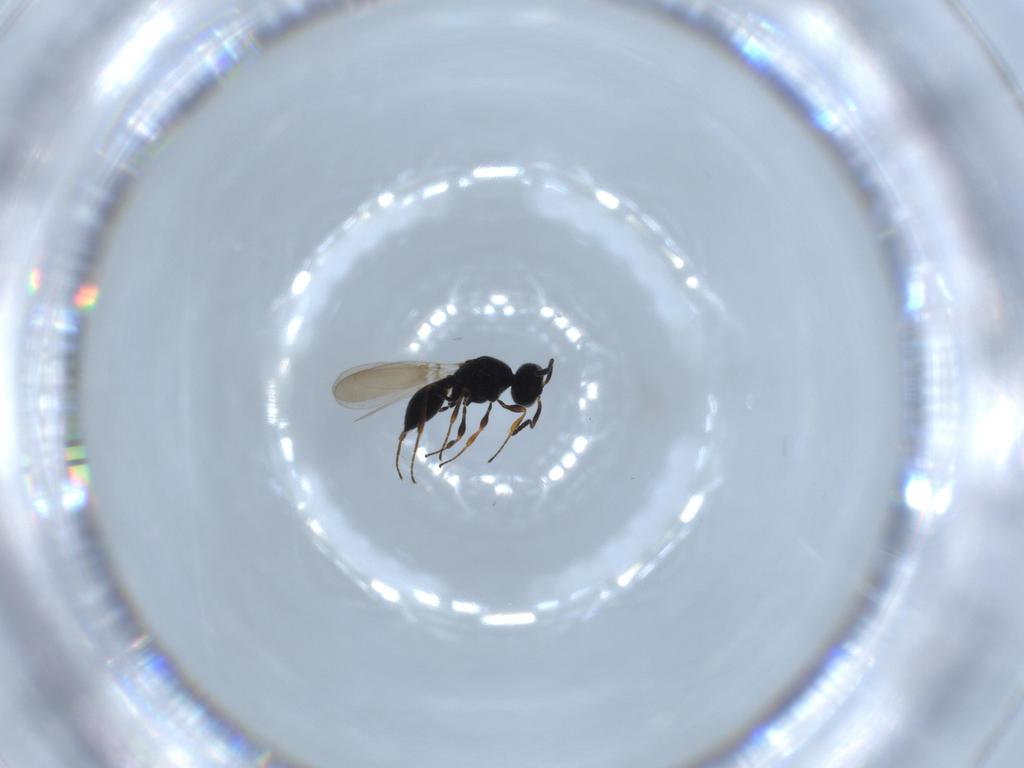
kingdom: Animalia
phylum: Arthropoda
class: Insecta
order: Hymenoptera
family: Platygastridae
